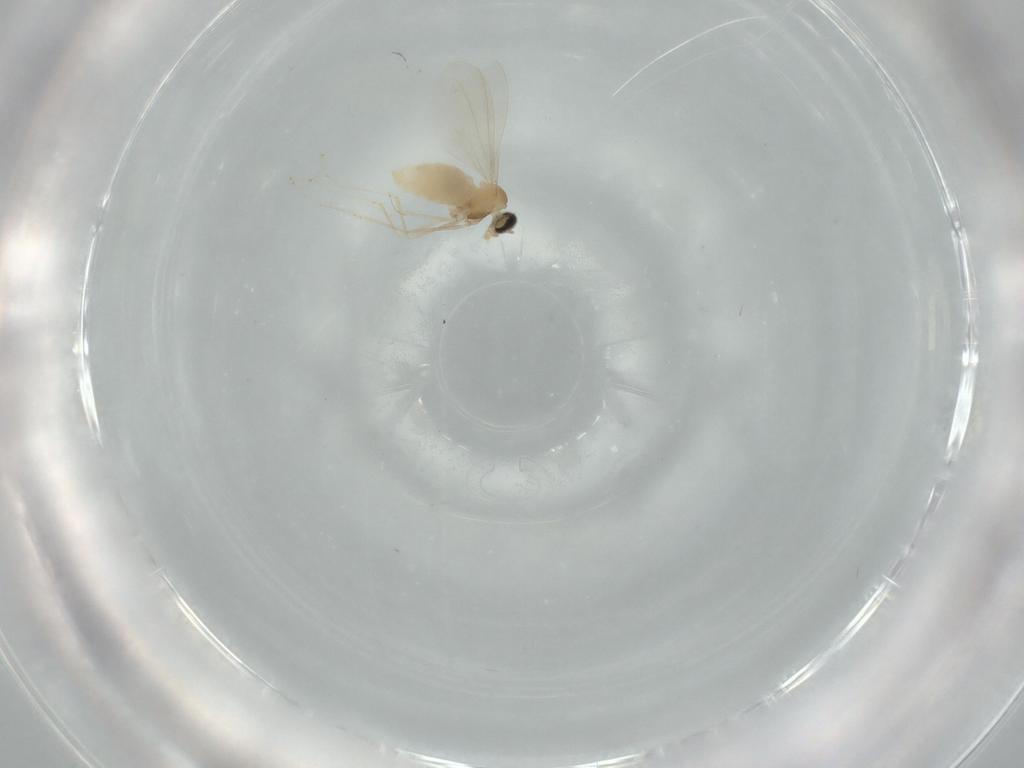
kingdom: Animalia
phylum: Arthropoda
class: Insecta
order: Diptera
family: Cecidomyiidae
